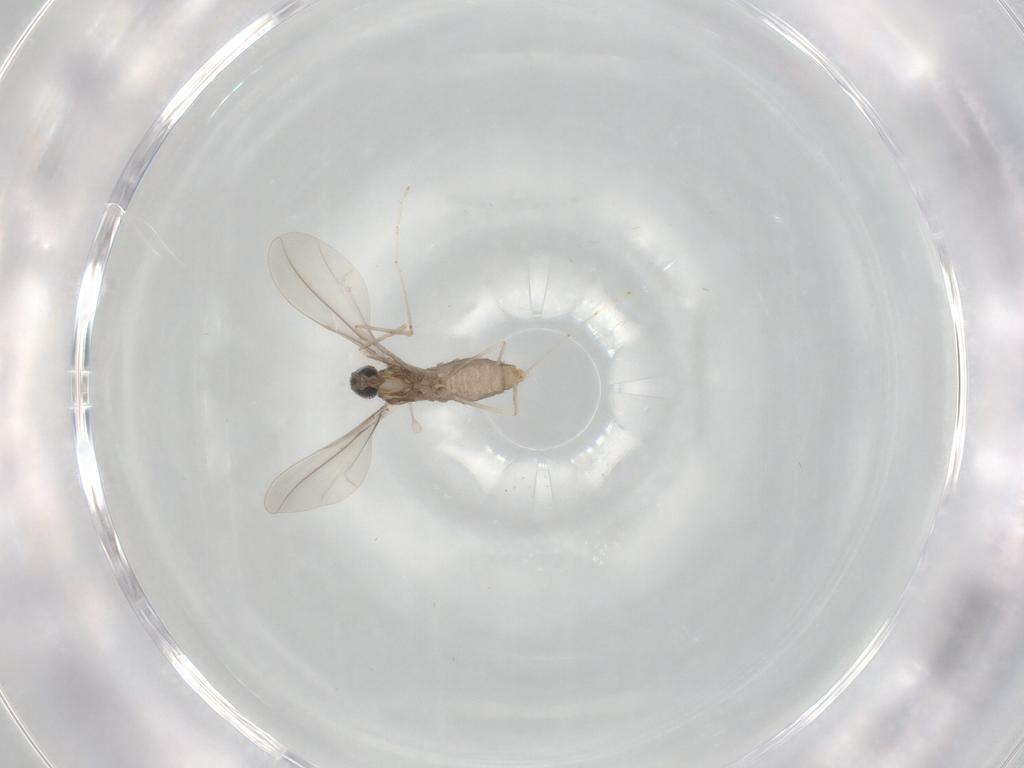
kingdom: Animalia
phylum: Arthropoda
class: Insecta
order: Diptera
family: Cecidomyiidae
